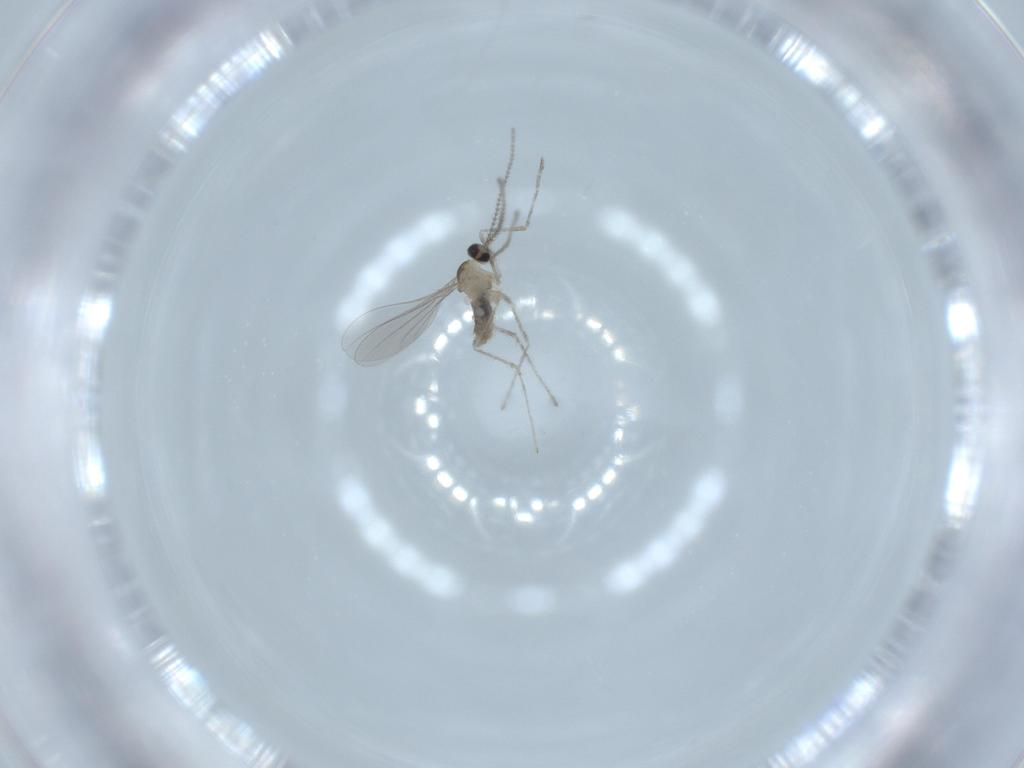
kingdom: Animalia
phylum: Arthropoda
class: Insecta
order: Diptera
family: Cecidomyiidae
